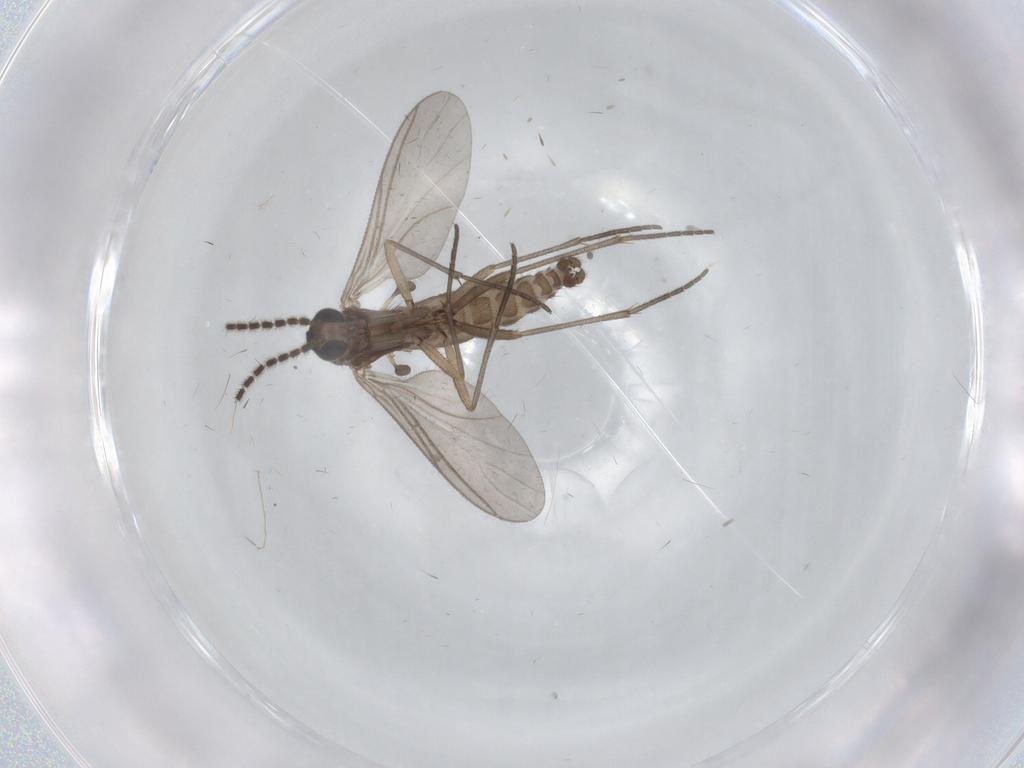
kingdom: Animalia
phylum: Arthropoda
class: Insecta
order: Diptera
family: Sciaridae
